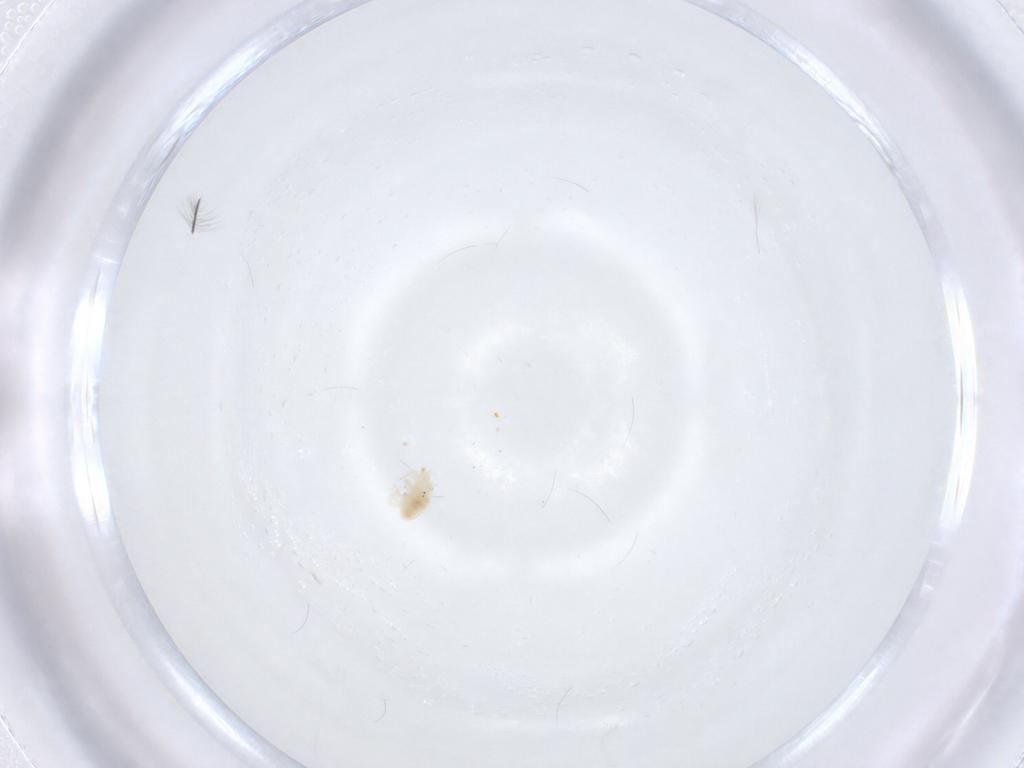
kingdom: Animalia
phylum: Arthropoda
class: Arachnida
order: Trombidiformes
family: Bdellidae
